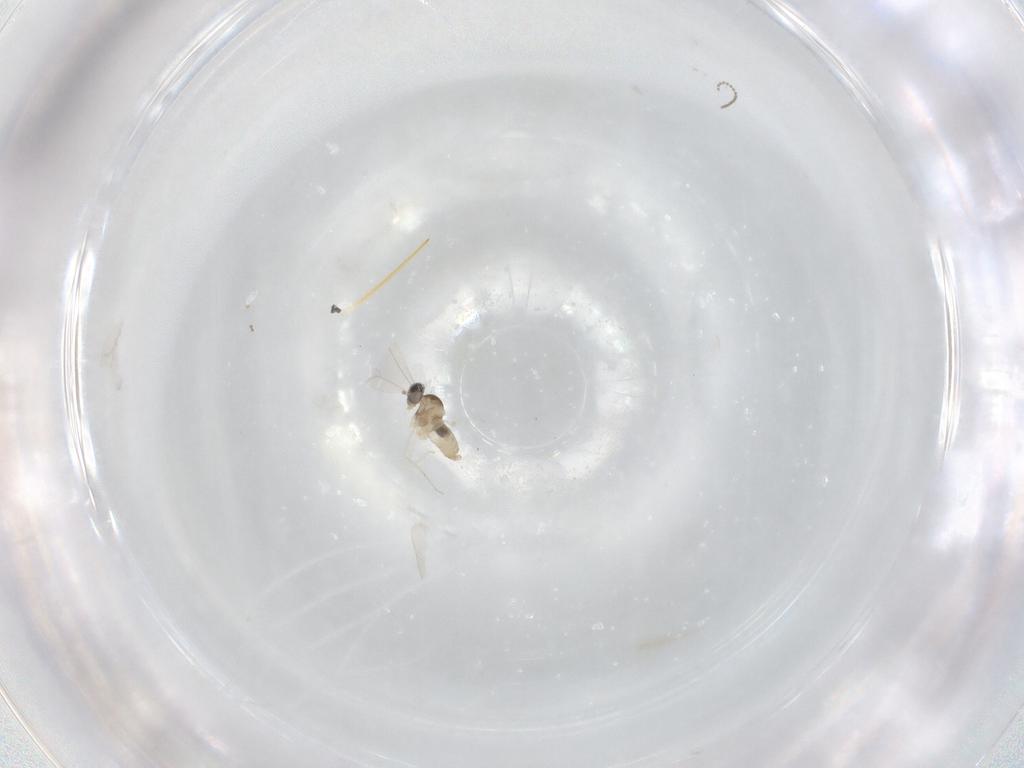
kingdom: Animalia
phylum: Arthropoda
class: Insecta
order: Diptera
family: Cecidomyiidae
